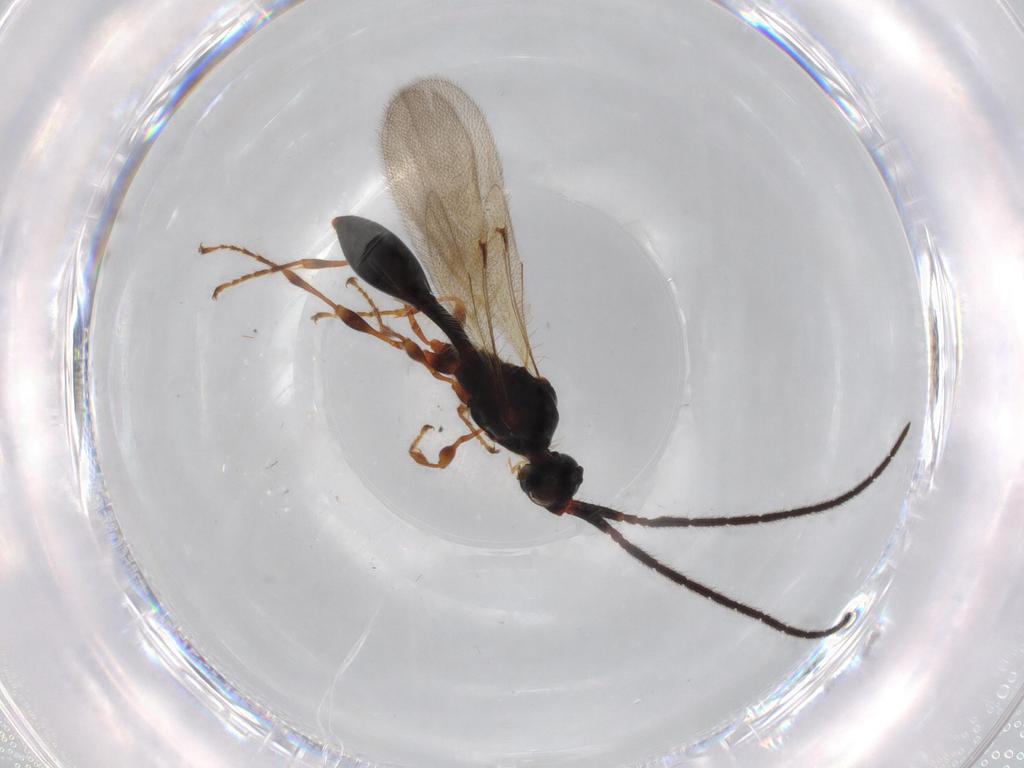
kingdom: Animalia
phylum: Arthropoda
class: Insecta
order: Hymenoptera
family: Diapriidae
